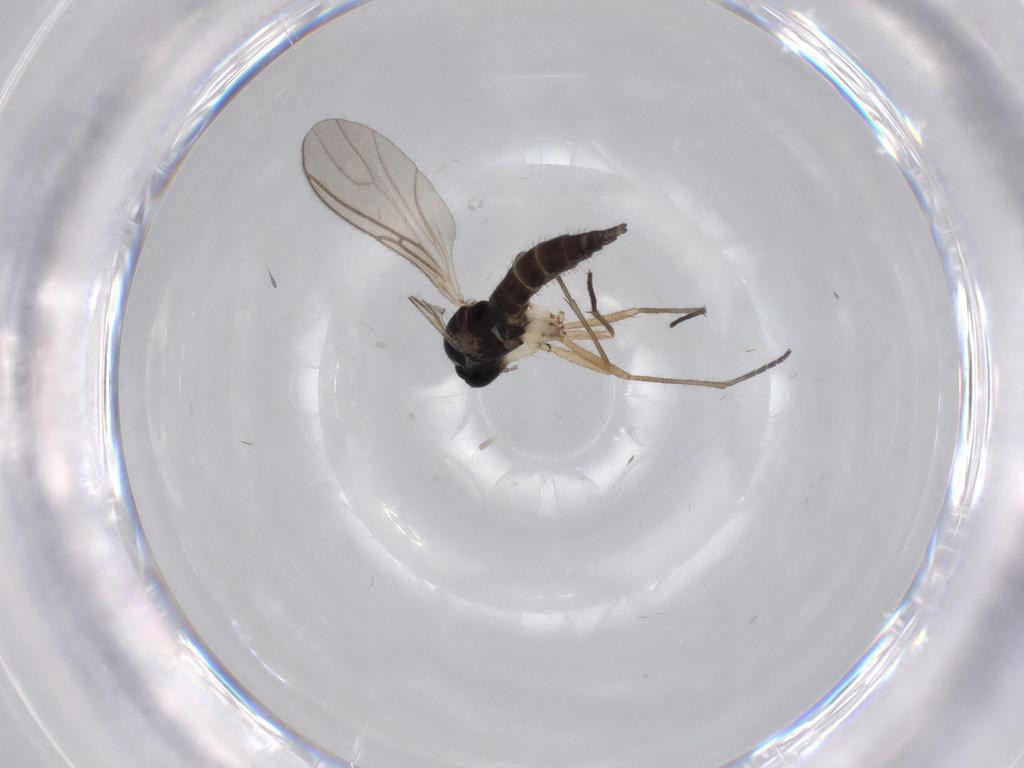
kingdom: Animalia
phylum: Arthropoda
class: Insecta
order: Diptera
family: Sciaridae
